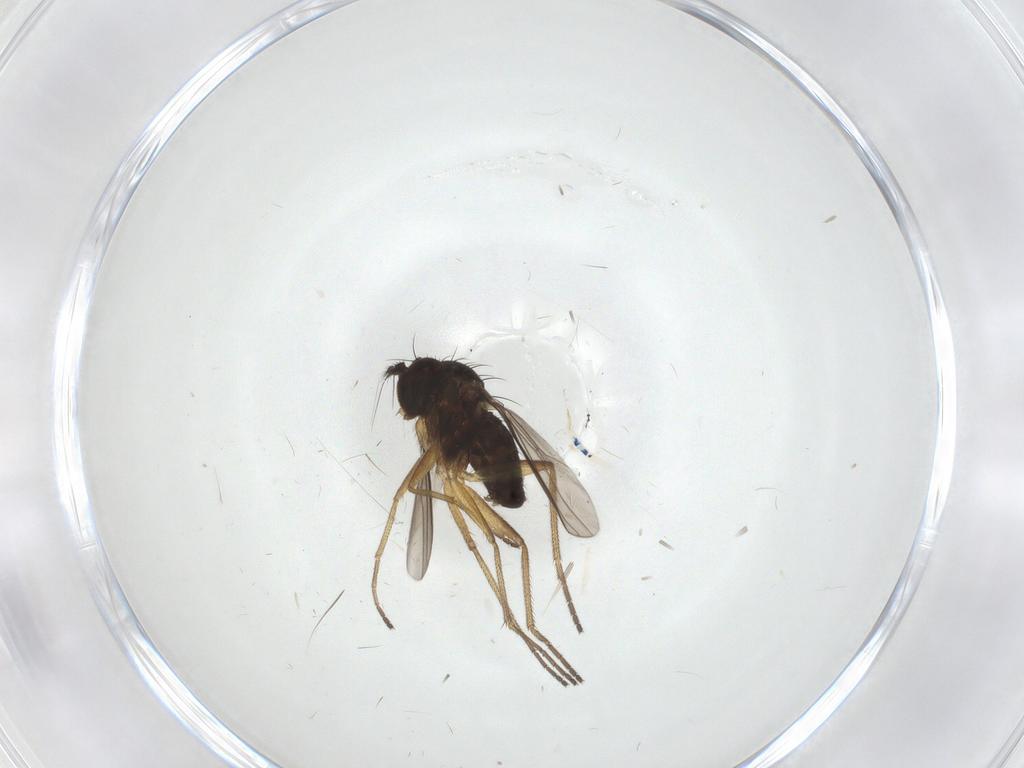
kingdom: Animalia
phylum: Arthropoda
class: Insecta
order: Diptera
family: Dolichopodidae
